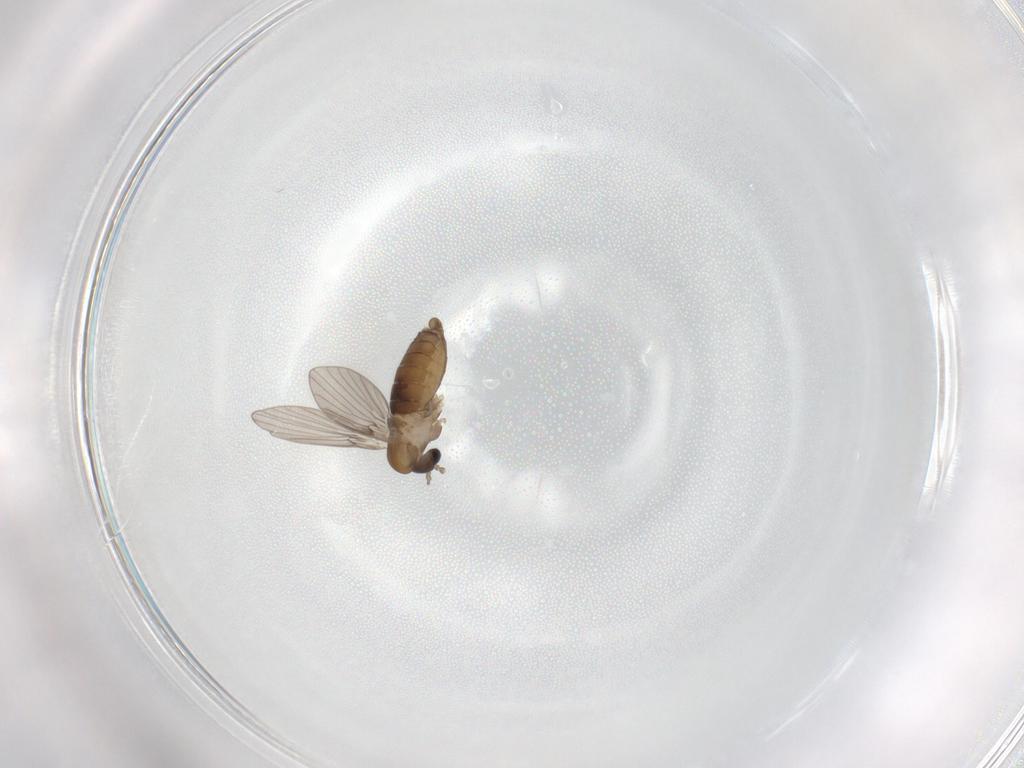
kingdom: Animalia
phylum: Arthropoda
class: Insecta
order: Diptera
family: Psychodidae
